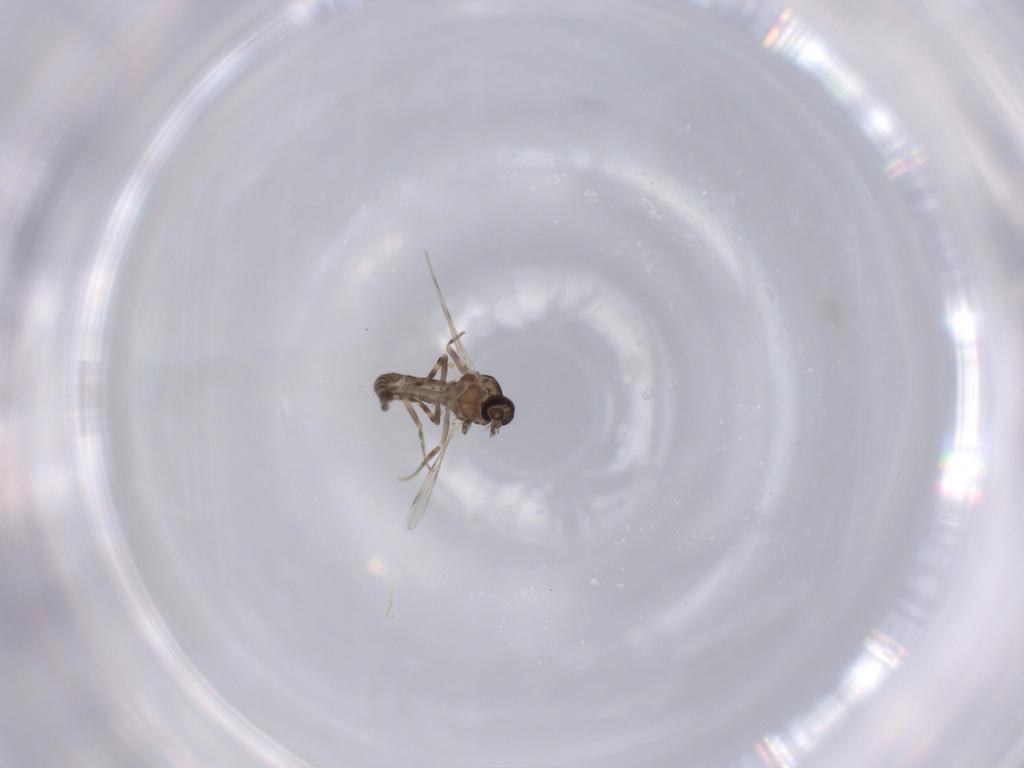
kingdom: Animalia
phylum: Arthropoda
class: Insecta
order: Diptera
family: Ceratopogonidae
